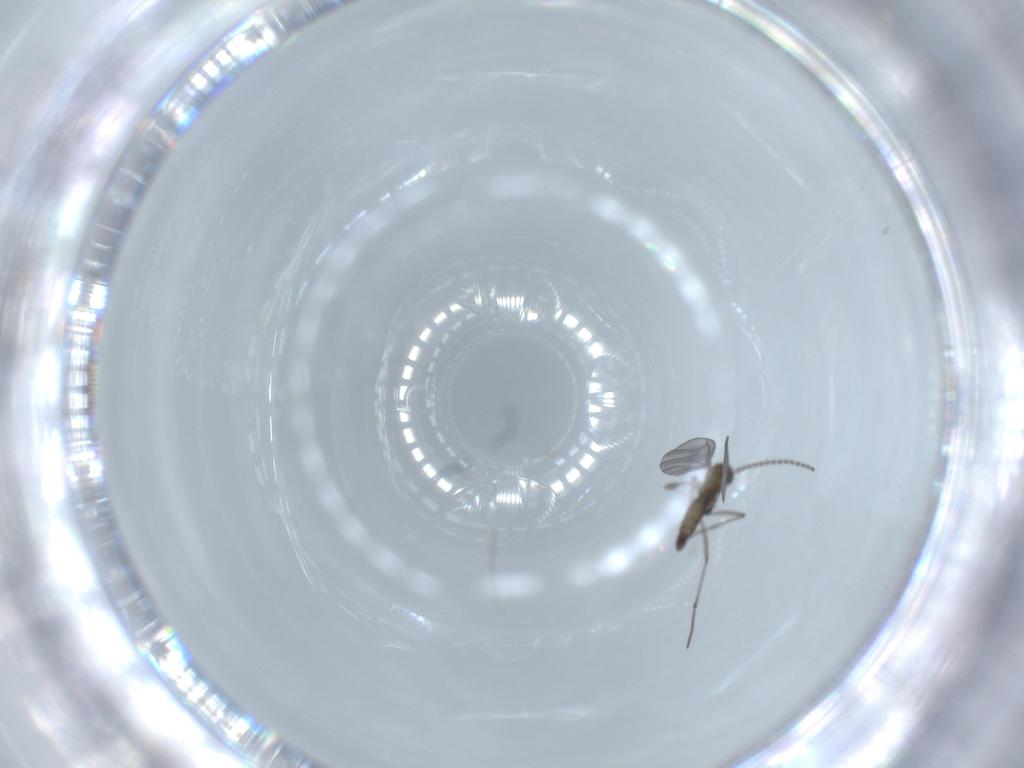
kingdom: Animalia
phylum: Arthropoda
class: Insecta
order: Diptera
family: Sciaridae
